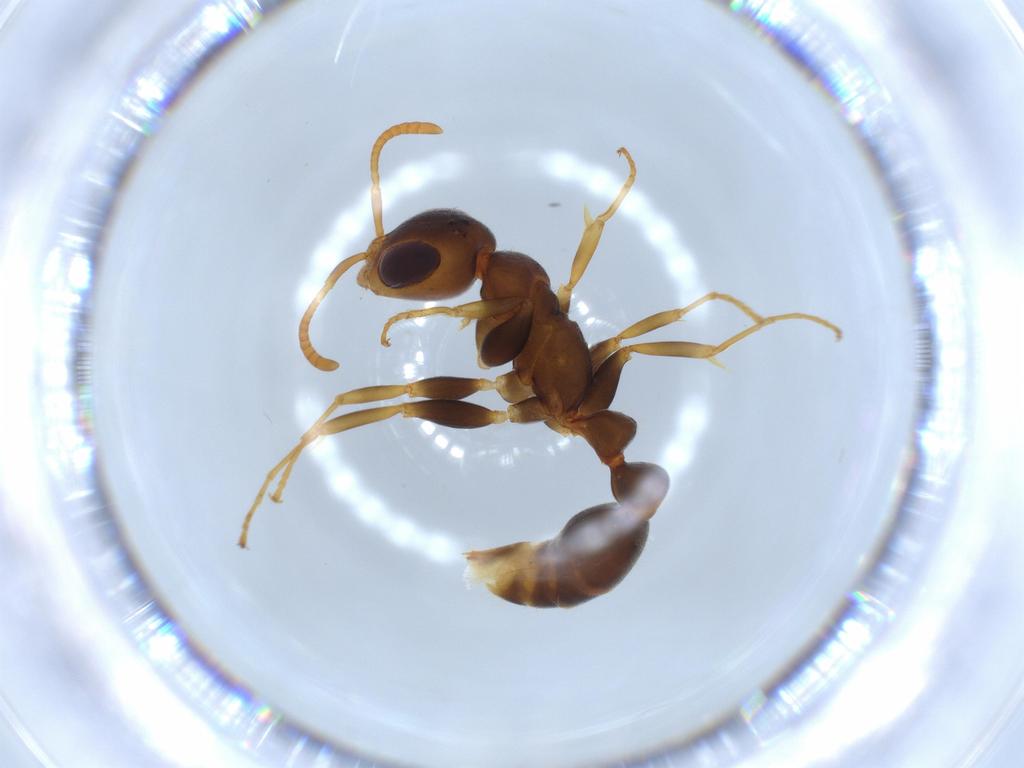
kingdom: Animalia
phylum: Arthropoda
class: Insecta
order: Hymenoptera
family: Formicidae
